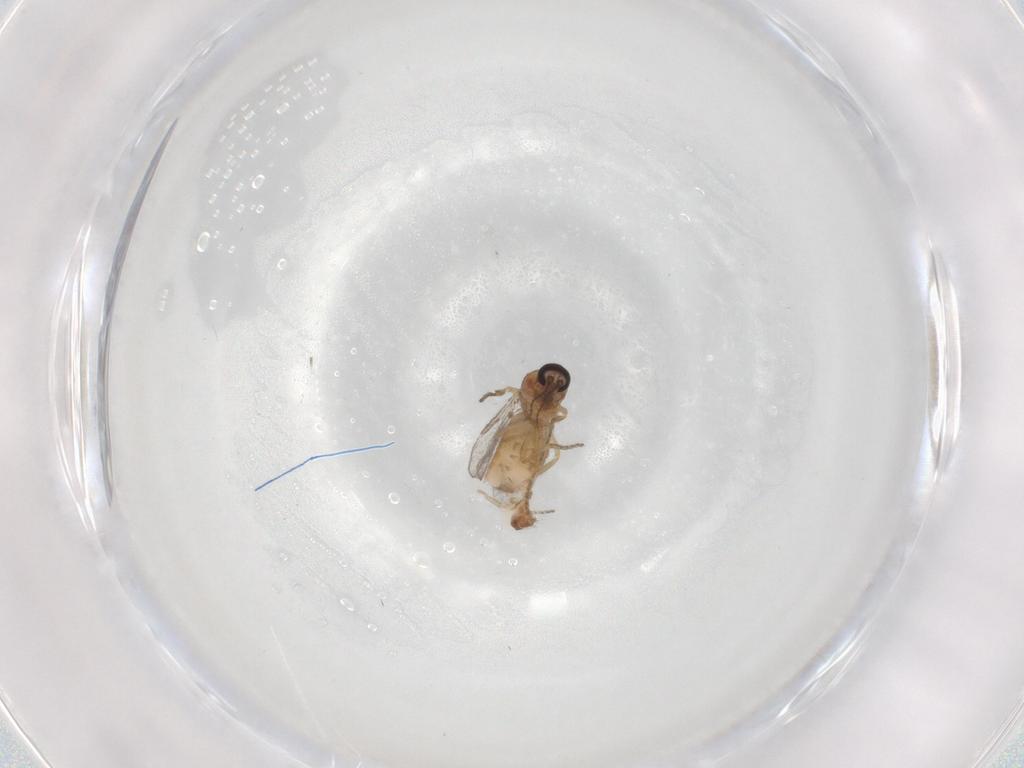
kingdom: Animalia
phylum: Arthropoda
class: Insecta
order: Diptera
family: Ceratopogonidae
